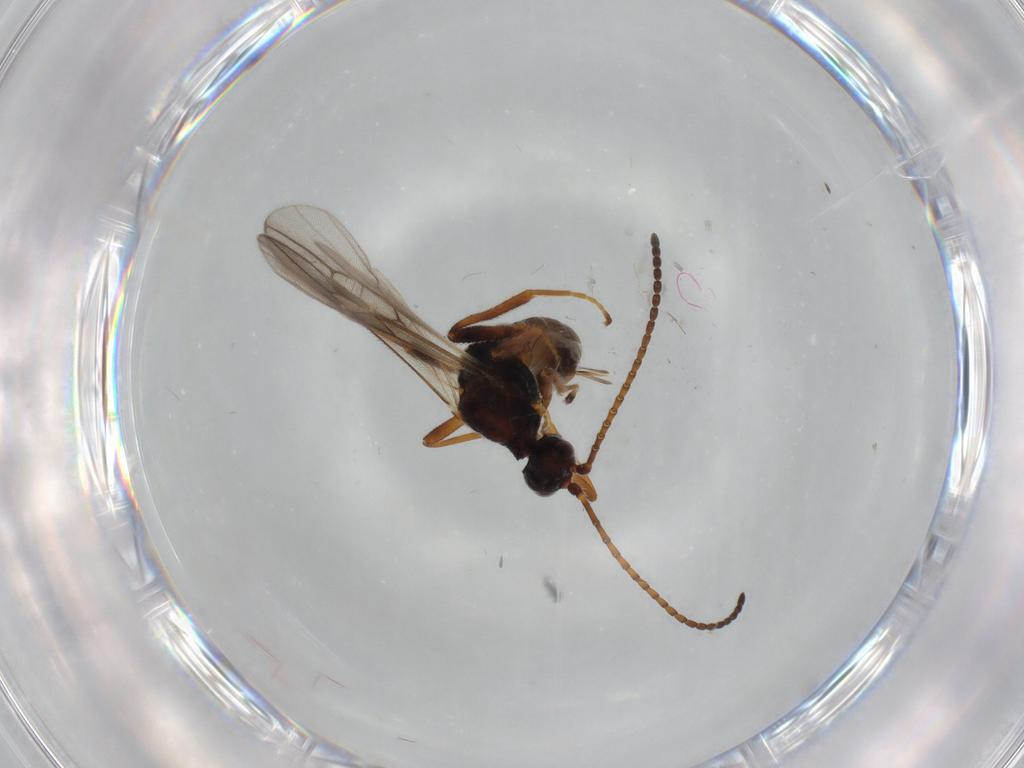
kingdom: Animalia
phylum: Arthropoda
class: Insecta
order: Hymenoptera
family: Braconidae
